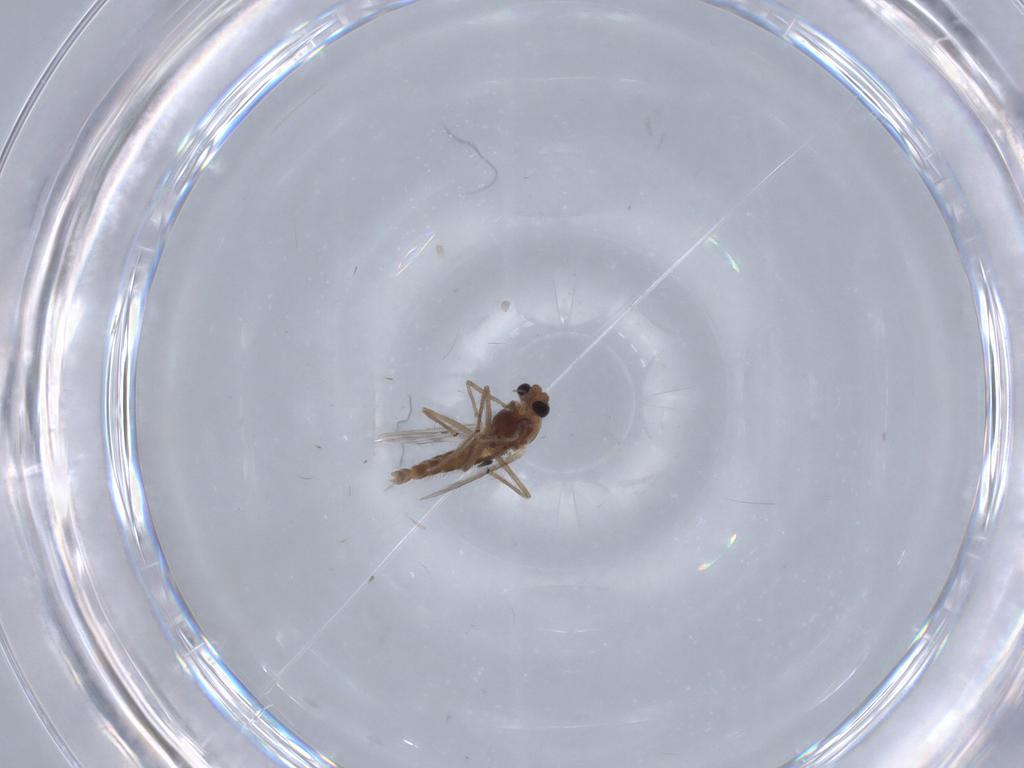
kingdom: Animalia
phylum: Arthropoda
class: Insecta
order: Diptera
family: Chironomidae
